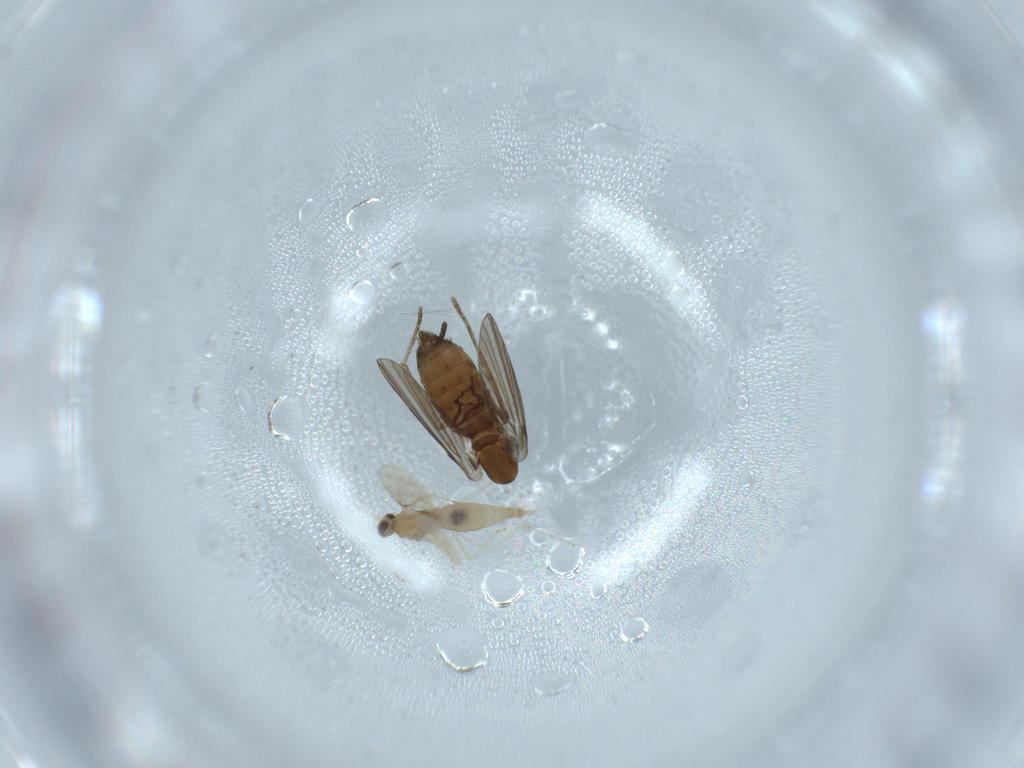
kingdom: Animalia
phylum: Arthropoda
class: Insecta
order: Diptera
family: Psychodidae
